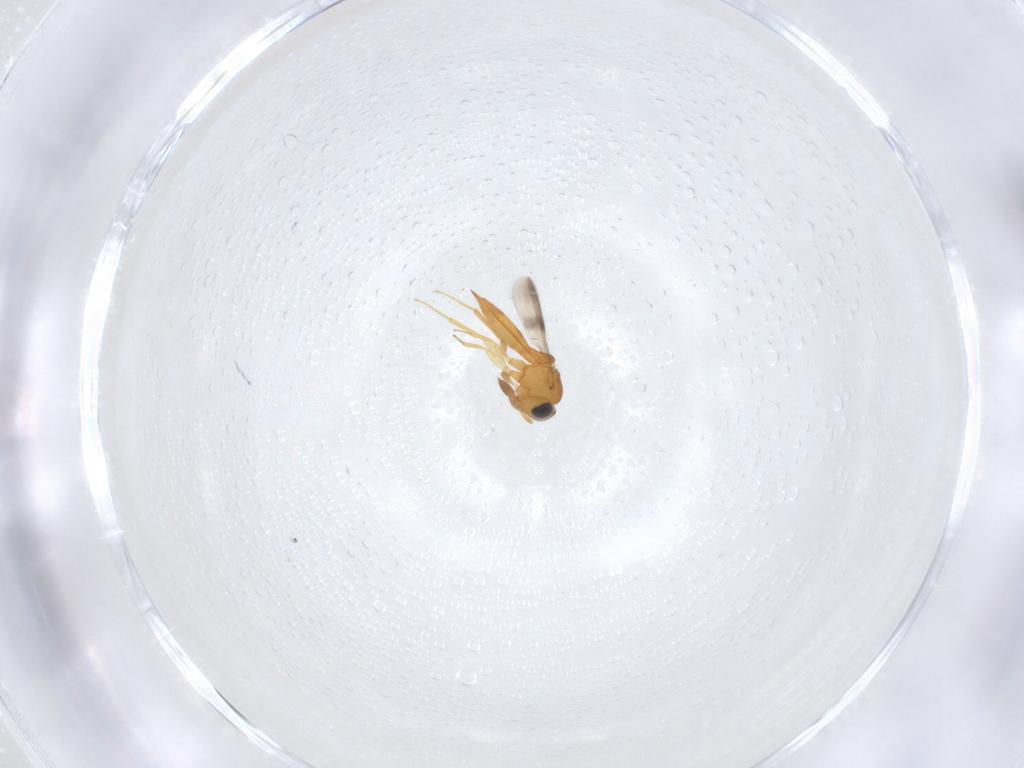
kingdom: Animalia
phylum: Arthropoda
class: Insecta
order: Hymenoptera
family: Scelionidae
